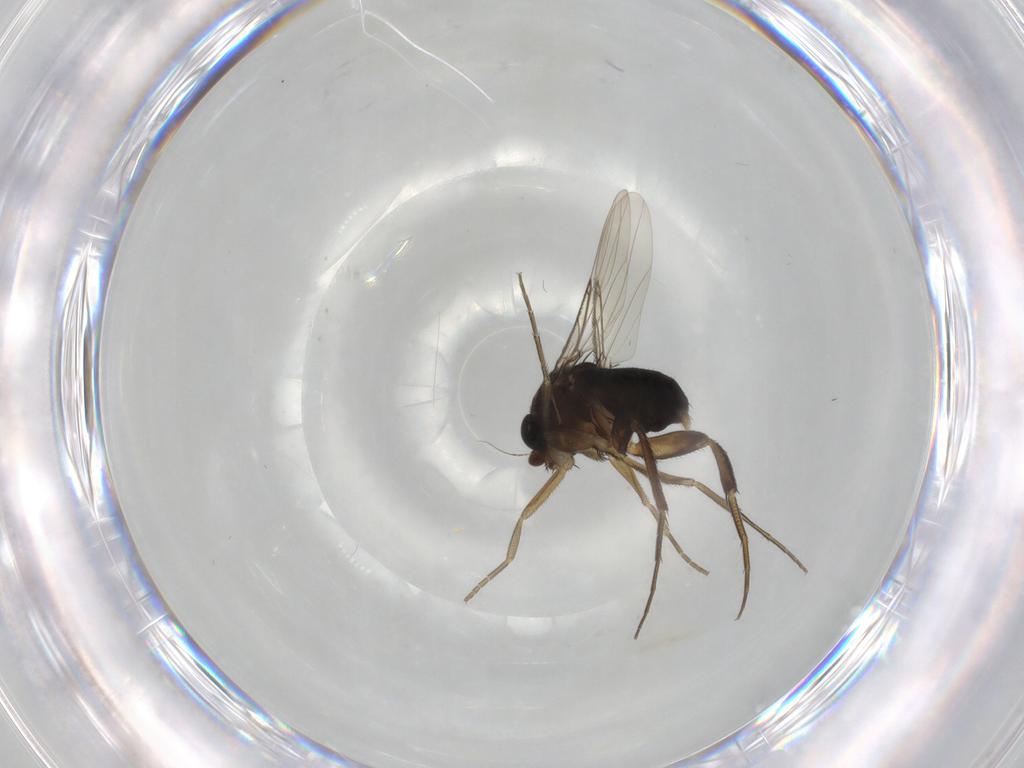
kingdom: Animalia
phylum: Arthropoda
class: Insecta
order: Diptera
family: Phoridae
